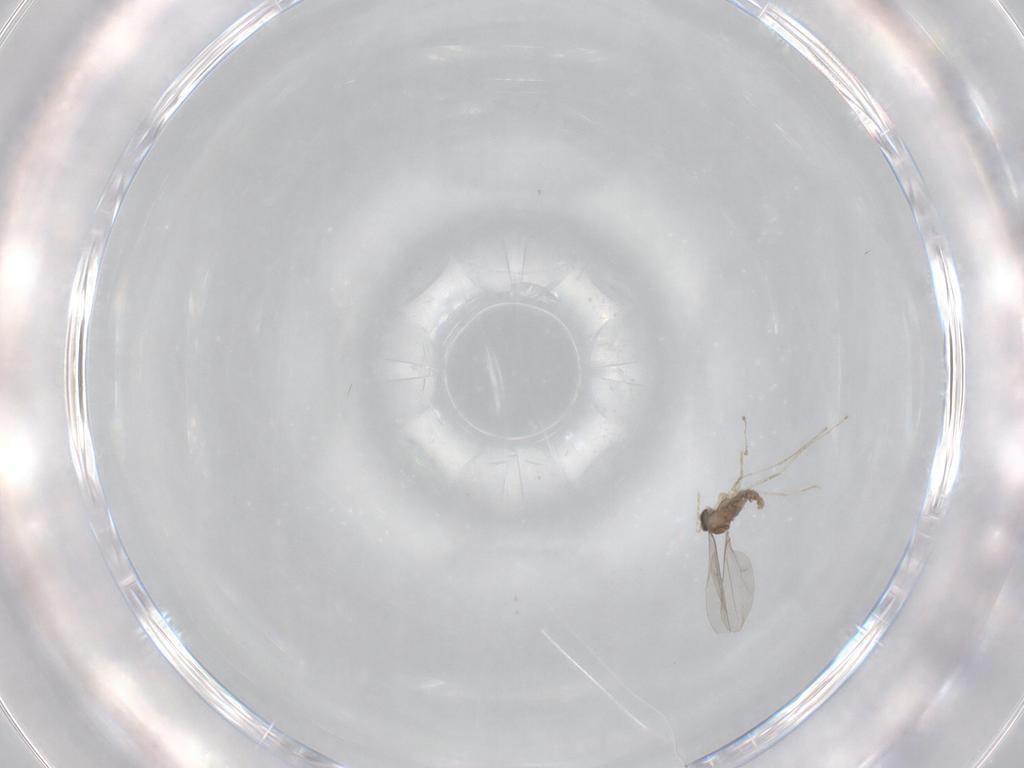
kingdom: Animalia
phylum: Arthropoda
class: Insecta
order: Diptera
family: Cecidomyiidae
